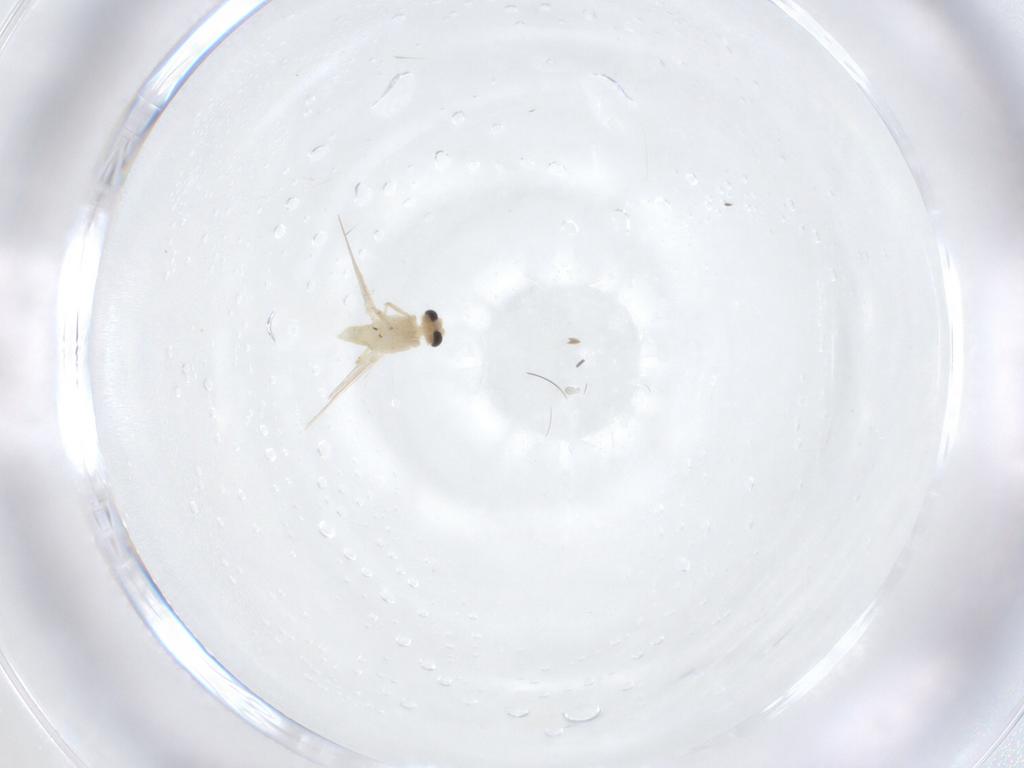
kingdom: Animalia
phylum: Arthropoda
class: Insecta
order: Diptera
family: Chironomidae
